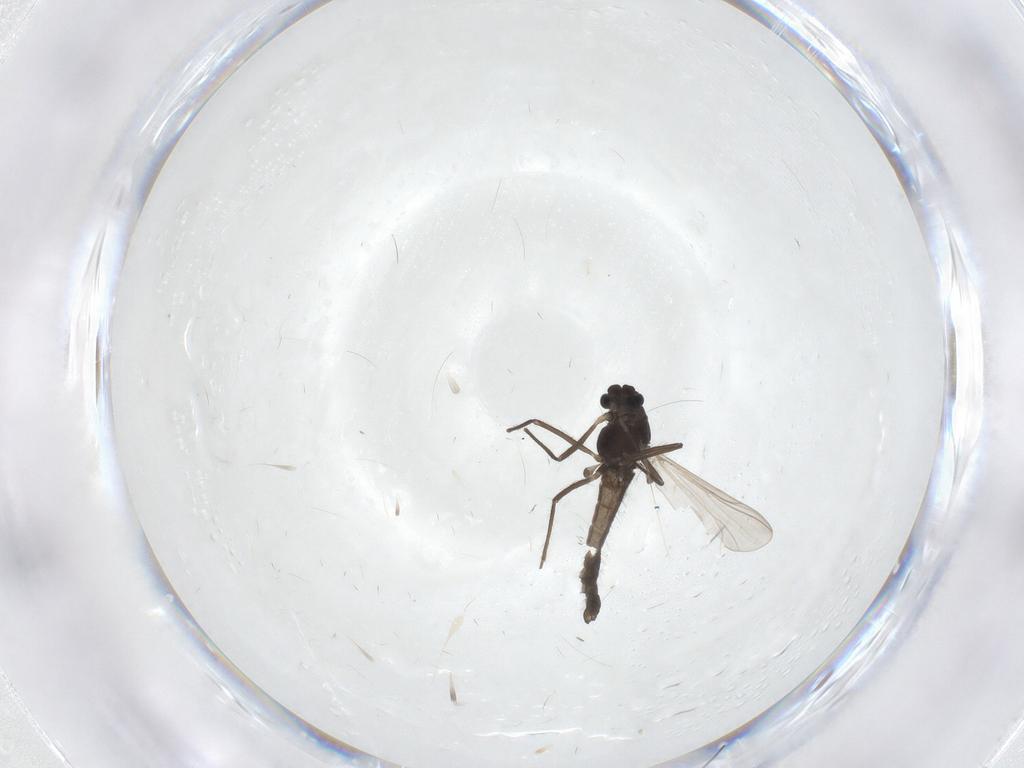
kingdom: Animalia
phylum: Arthropoda
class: Insecta
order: Diptera
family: Chironomidae
